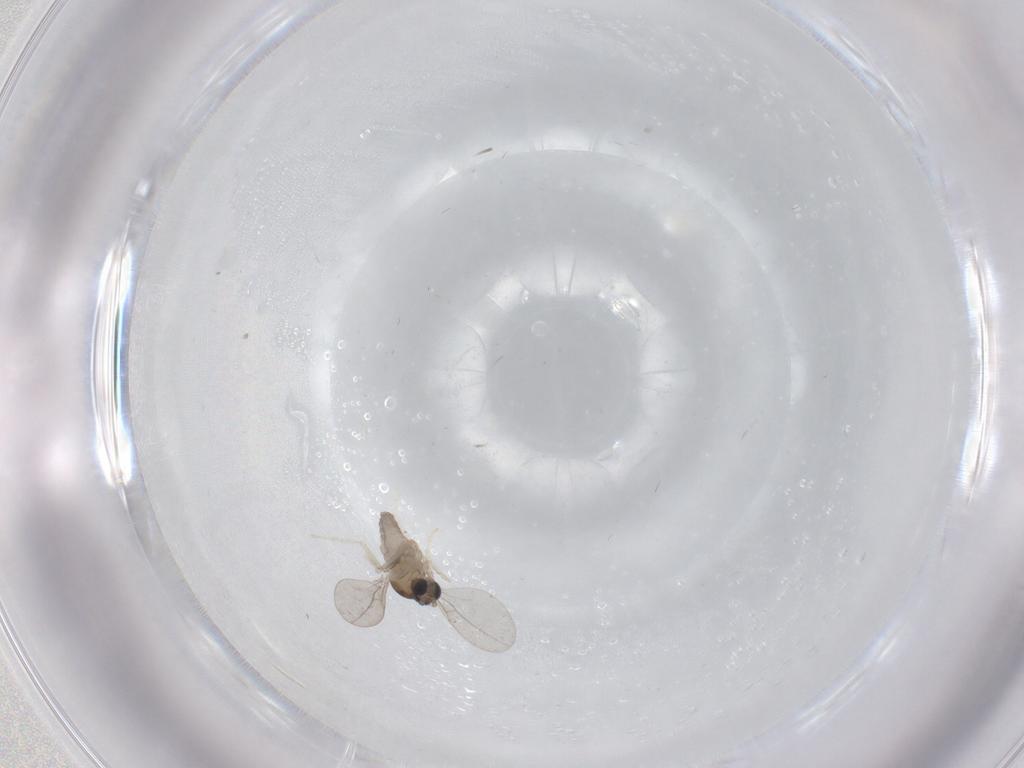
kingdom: Animalia
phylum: Arthropoda
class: Insecta
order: Diptera
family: Cecidomyiidae
